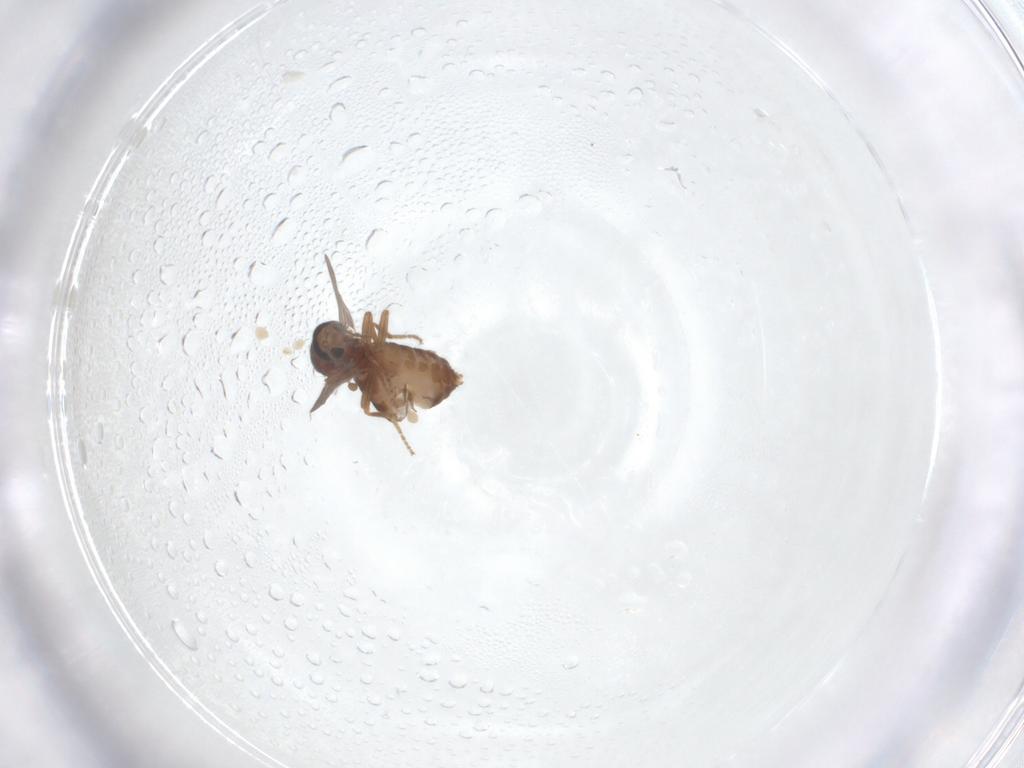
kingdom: Animalia
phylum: Arthropoda
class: Insecta
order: Diptera
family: Ceratopogonidae
